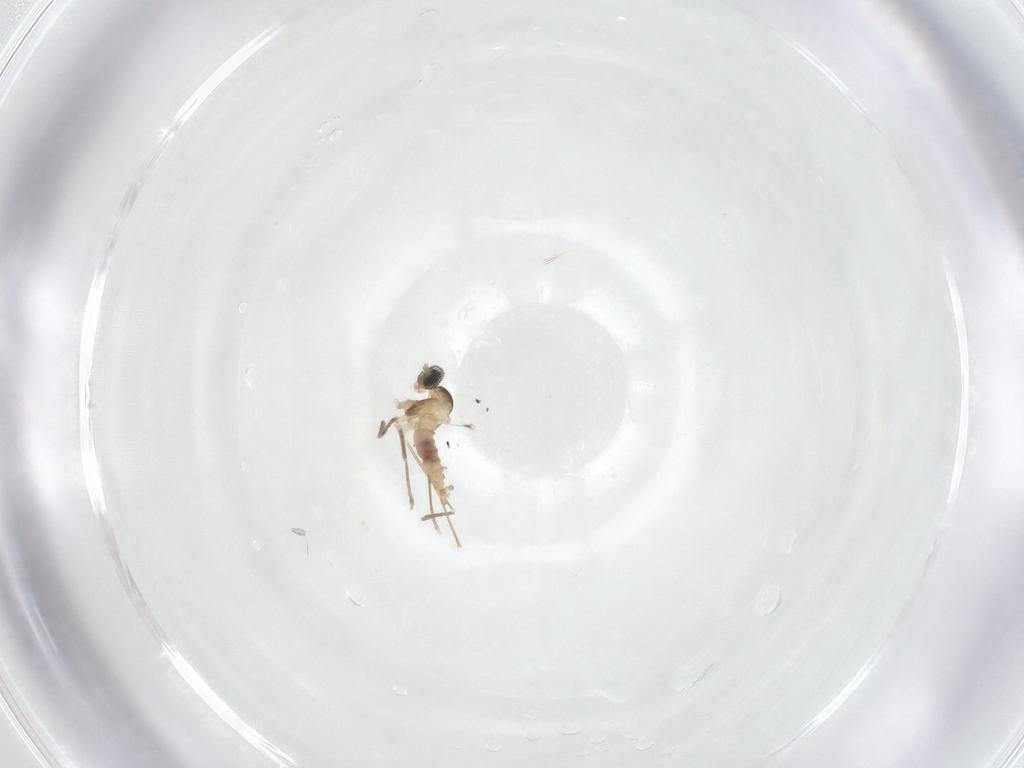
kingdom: Animalia
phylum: Arthropoda
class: Insecta
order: Diptera
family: Cecidomyiidae
